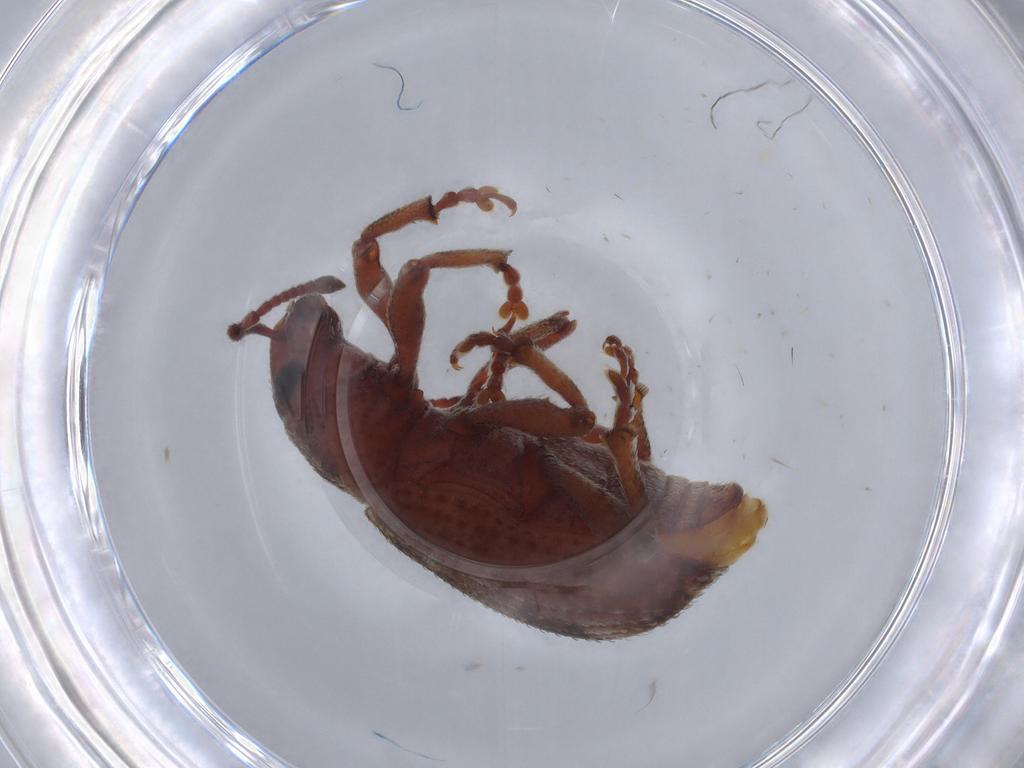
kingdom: Animalia
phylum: Arthropoda
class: Insecta
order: Coleoptera
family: Curculionidae
